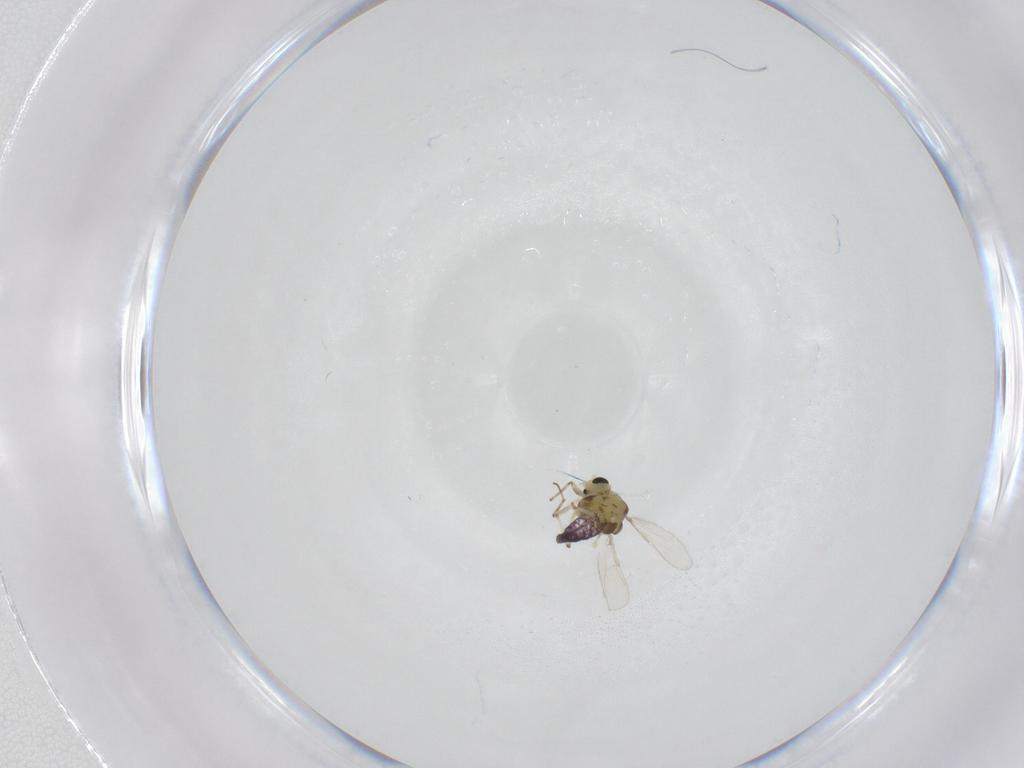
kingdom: Animalia
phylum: Arthropoda
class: Insecta
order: Diptera
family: Chironomidae
